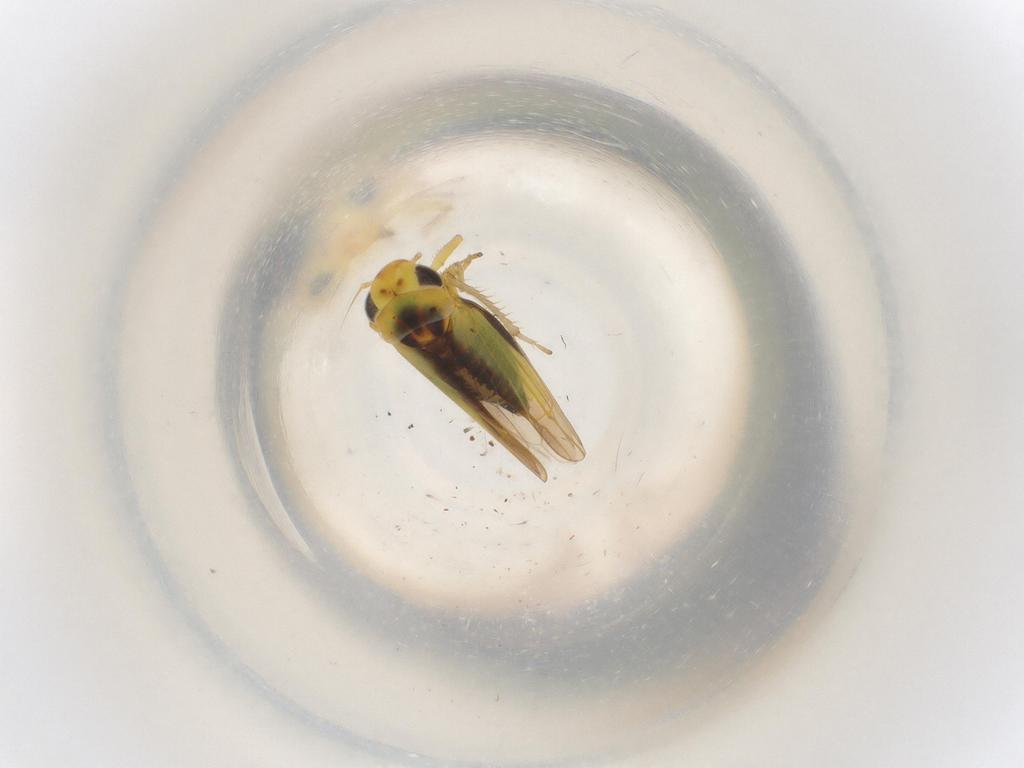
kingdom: Animalia
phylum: Arthropoda
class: Insecta
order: Hemiptera
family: Cicadellidae
